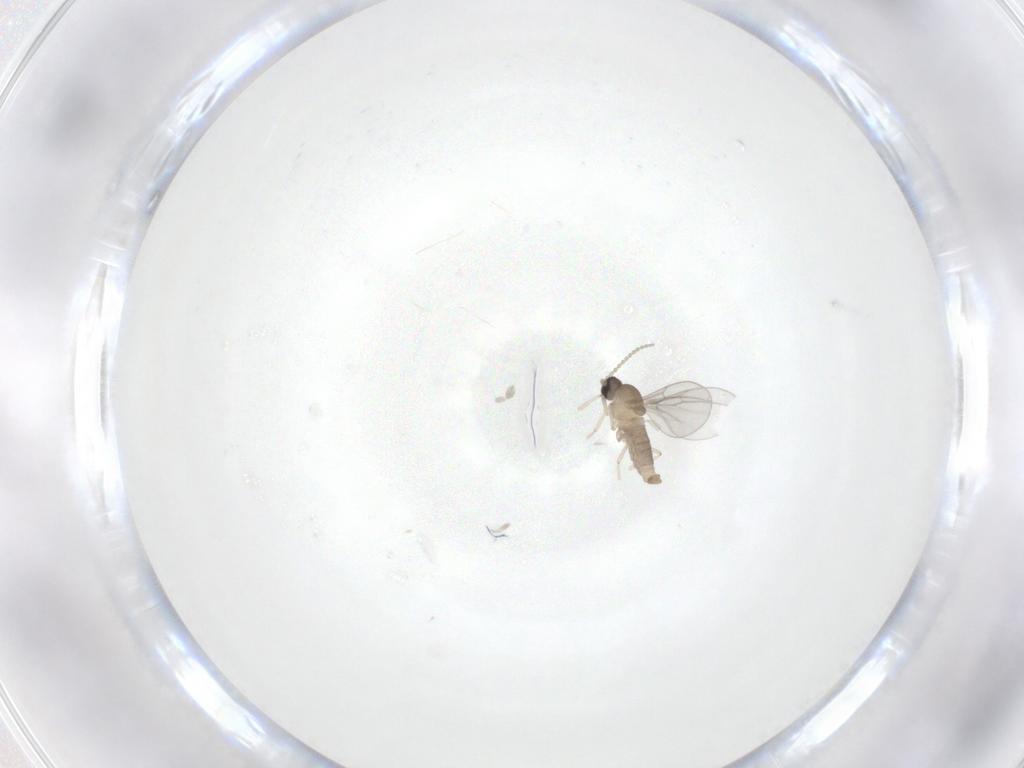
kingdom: Animalia
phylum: Arthropoda
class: Insecta
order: Diptera
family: Cecidomyiidae
